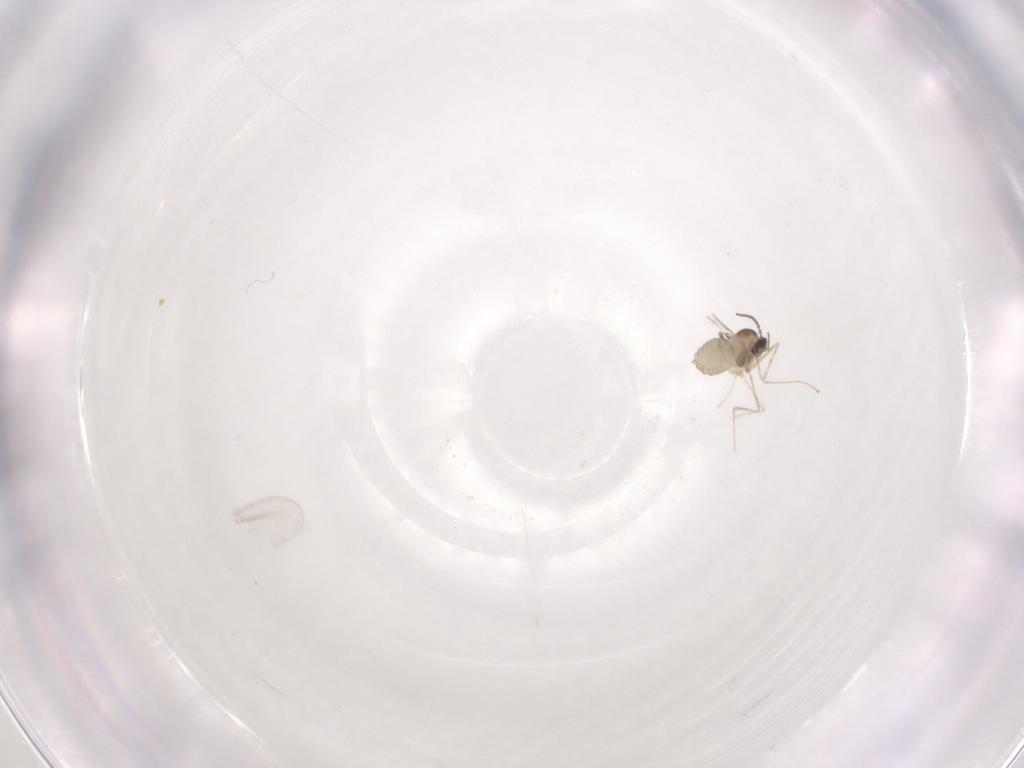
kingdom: Animalia
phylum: Arthropoda
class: Insecta
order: Diptera
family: Cecidomyiidae
